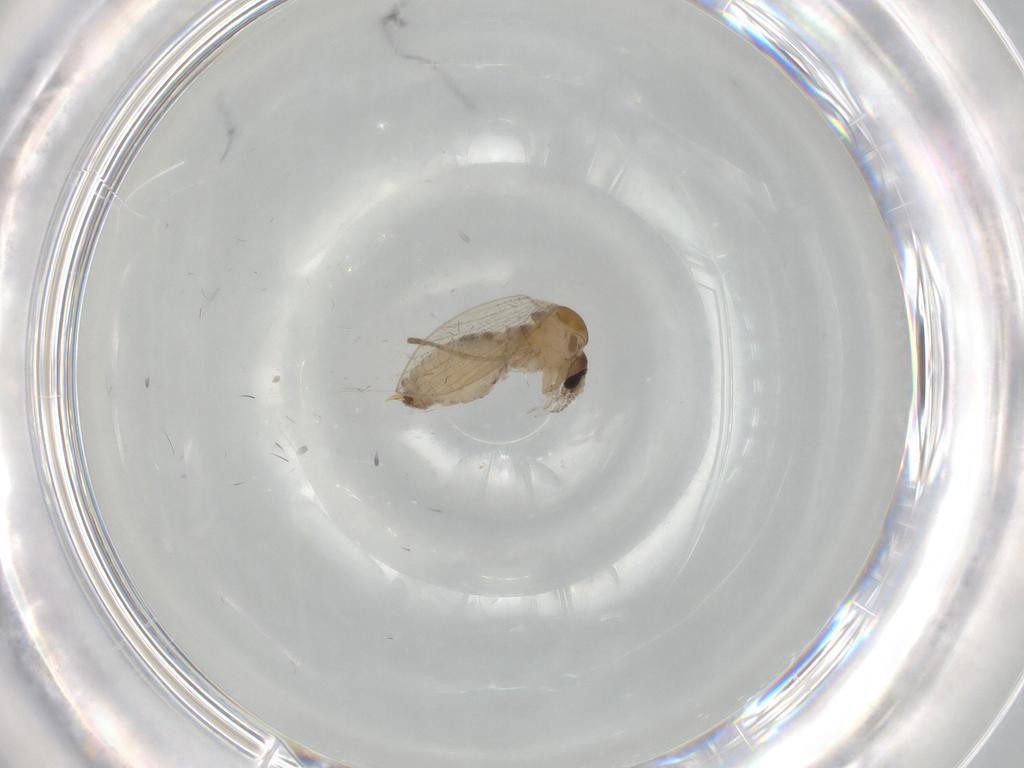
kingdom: Animalia
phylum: Arthropoda
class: Insecta
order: Diptera
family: Psychodidae
